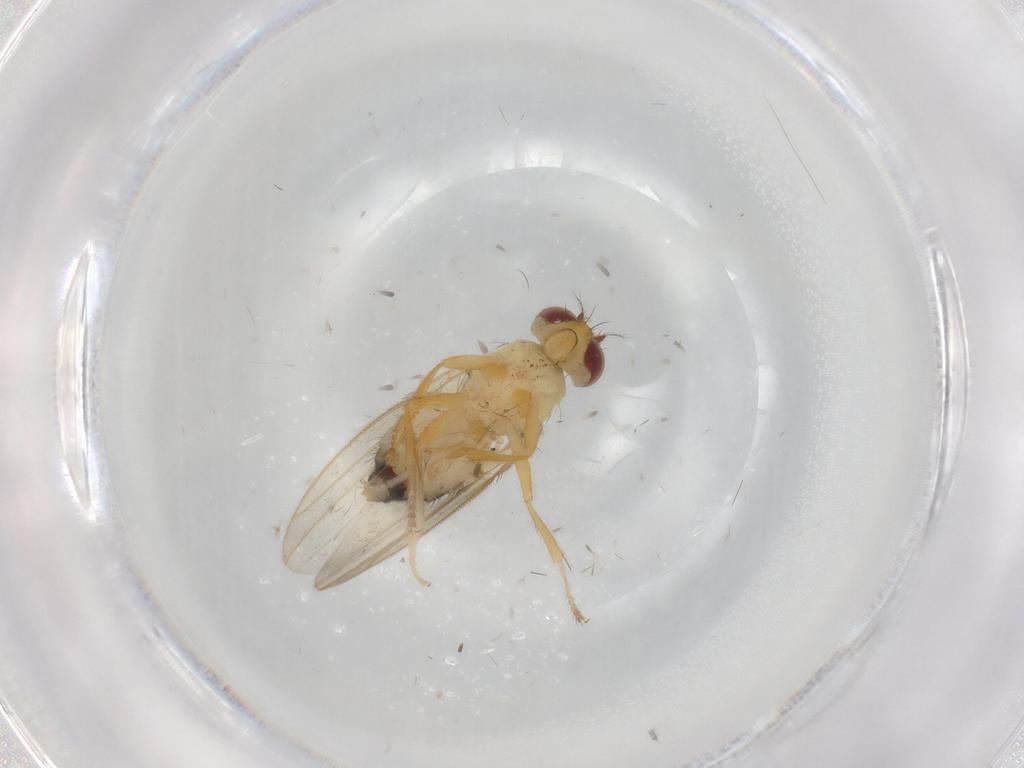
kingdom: Animalia
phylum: Arthropoda
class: Insecta
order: Diptera
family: Periscelididae
